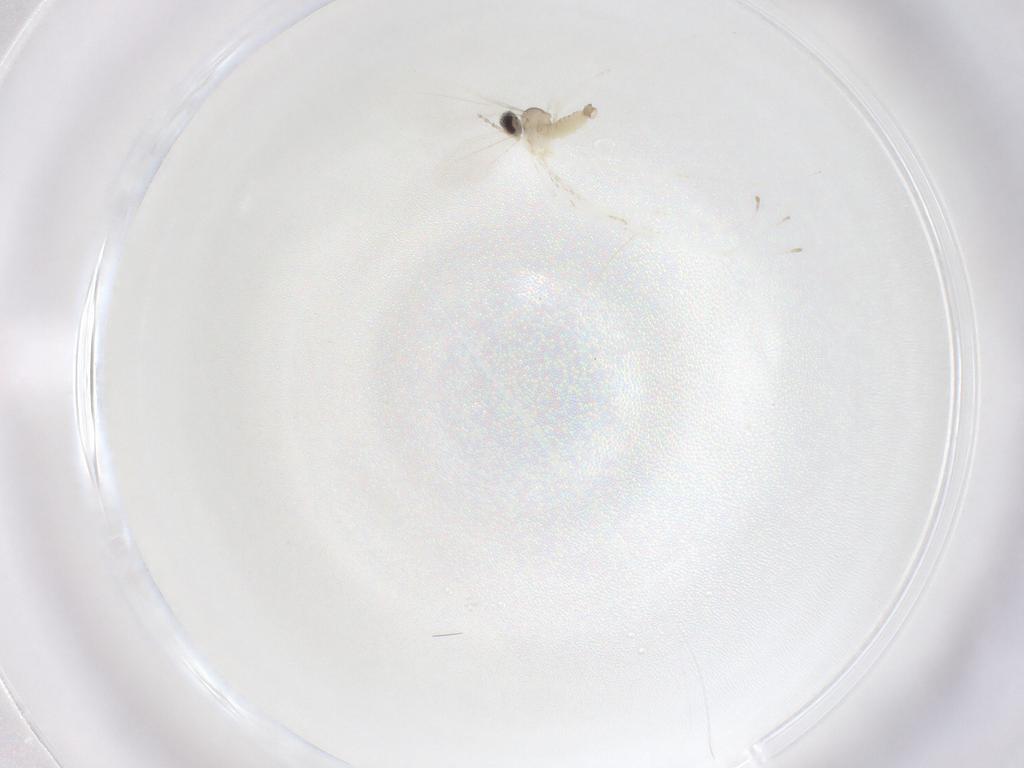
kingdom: Animalia
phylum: Arthropoda
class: Insecta
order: Diptera
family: Cecidomyiidae
